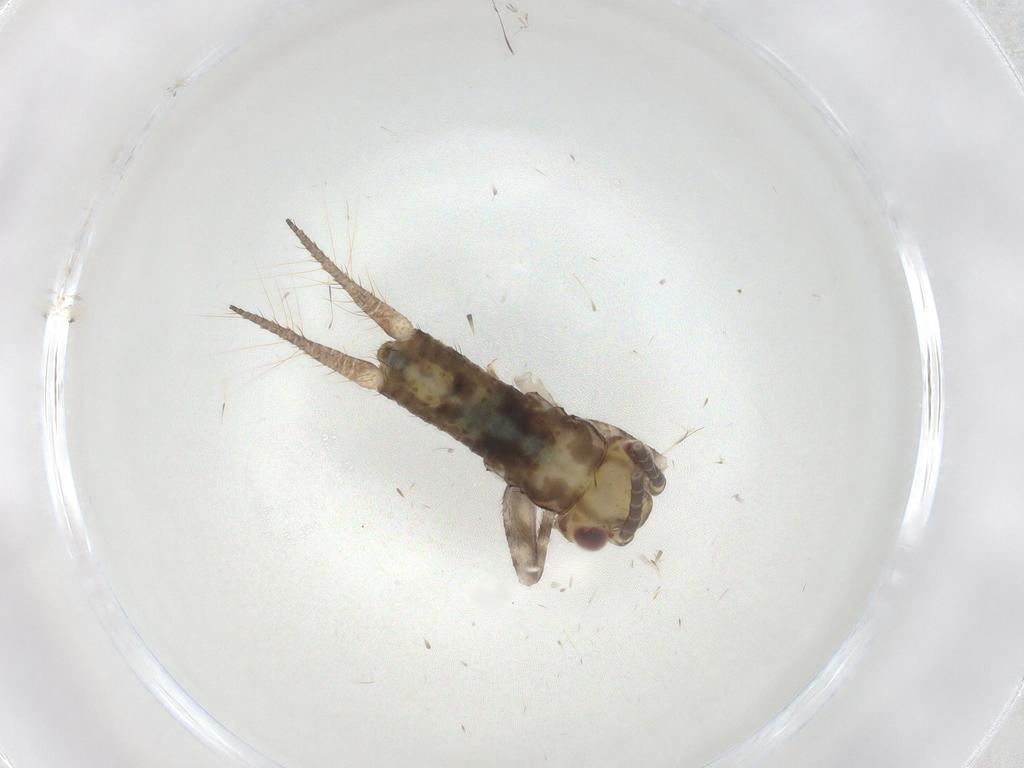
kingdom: Animalia
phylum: Arthropoda
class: Insecta
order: Orthoptera
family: Gryllidae
